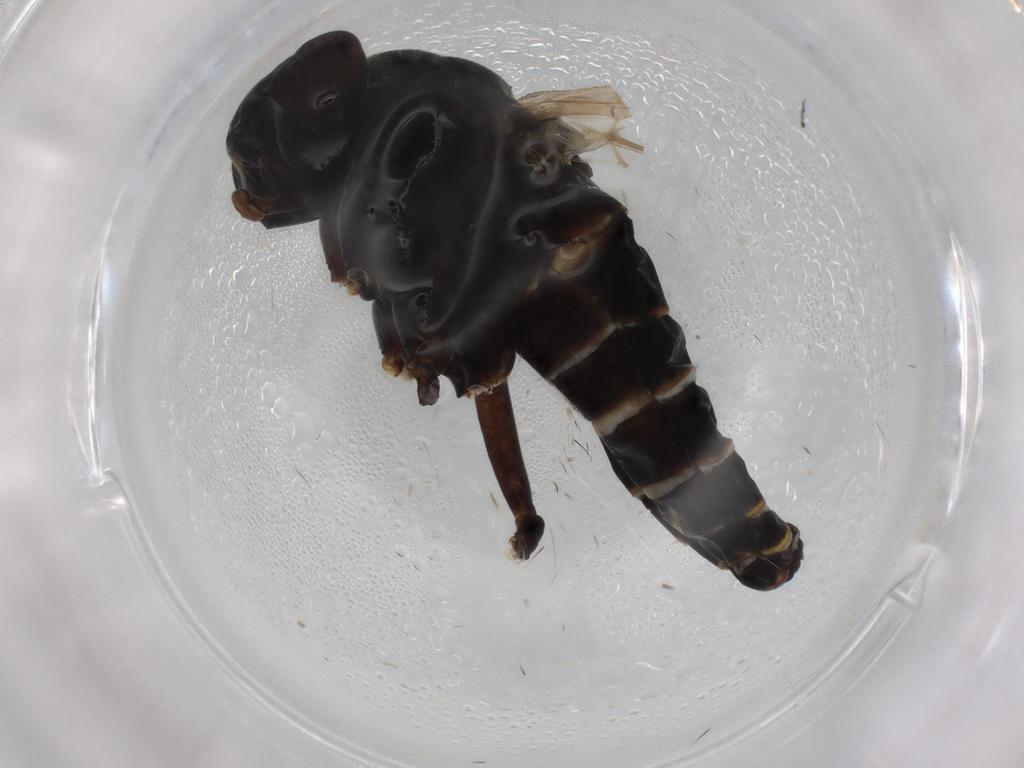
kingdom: Animalia
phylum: Arthropoda
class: Insecta
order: Diptera
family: Therevidae
